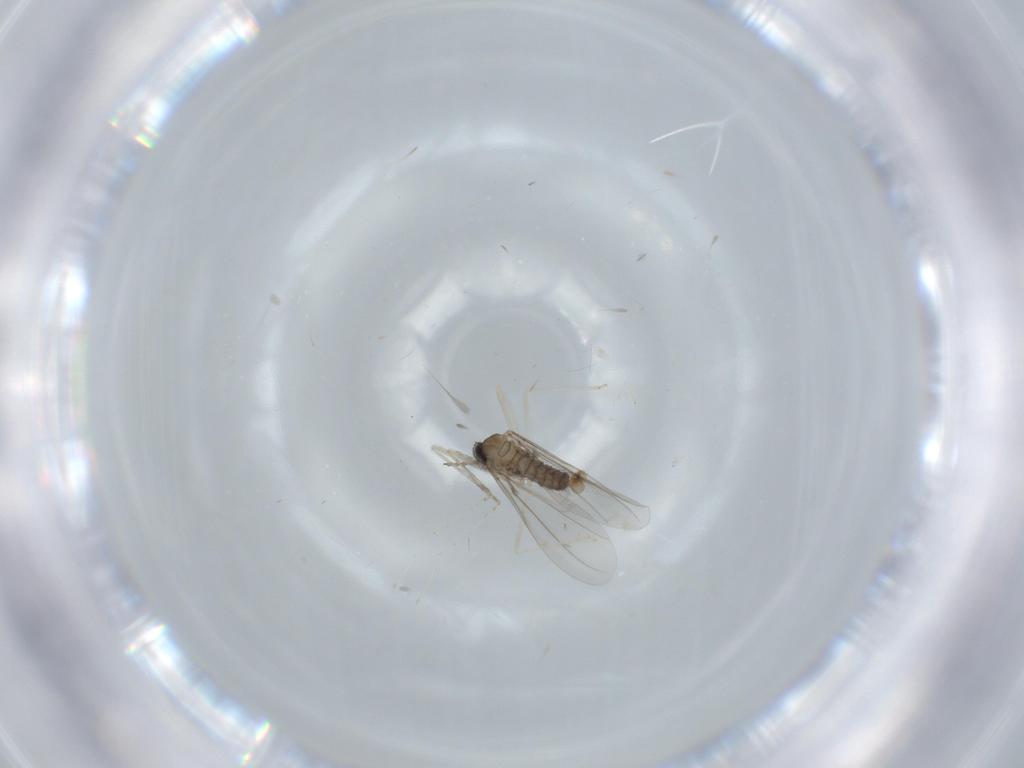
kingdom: Animalia
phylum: Arthropoda
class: Insecta
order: Diptera
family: Cecidomyiidae
